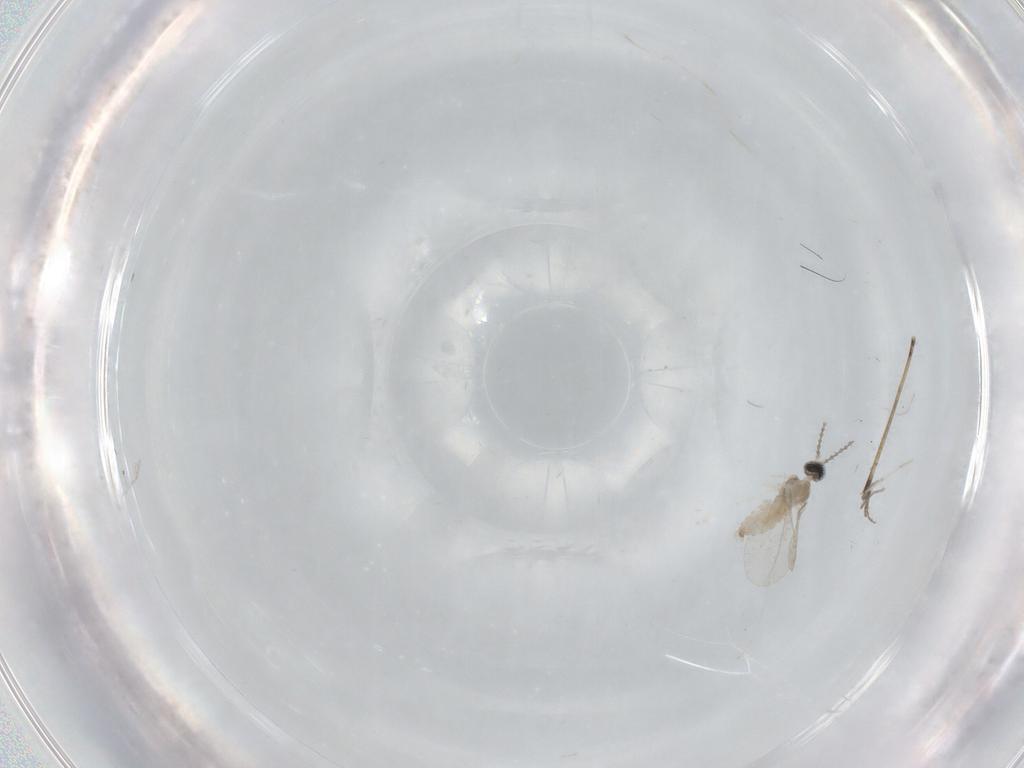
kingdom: Animalia
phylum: Arthropoda
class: Insecta
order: Diptera
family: Cecidomyiidae
